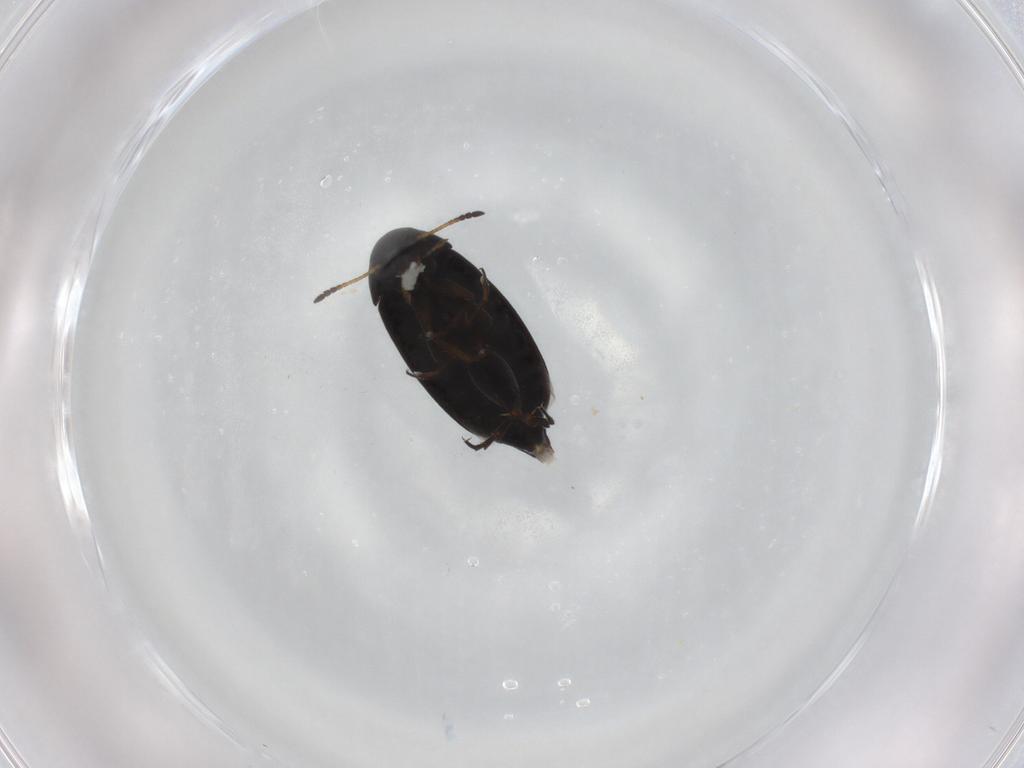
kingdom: Animalia
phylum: Arthropoda
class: Insecta
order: Coleoptera
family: Scraptiidae
